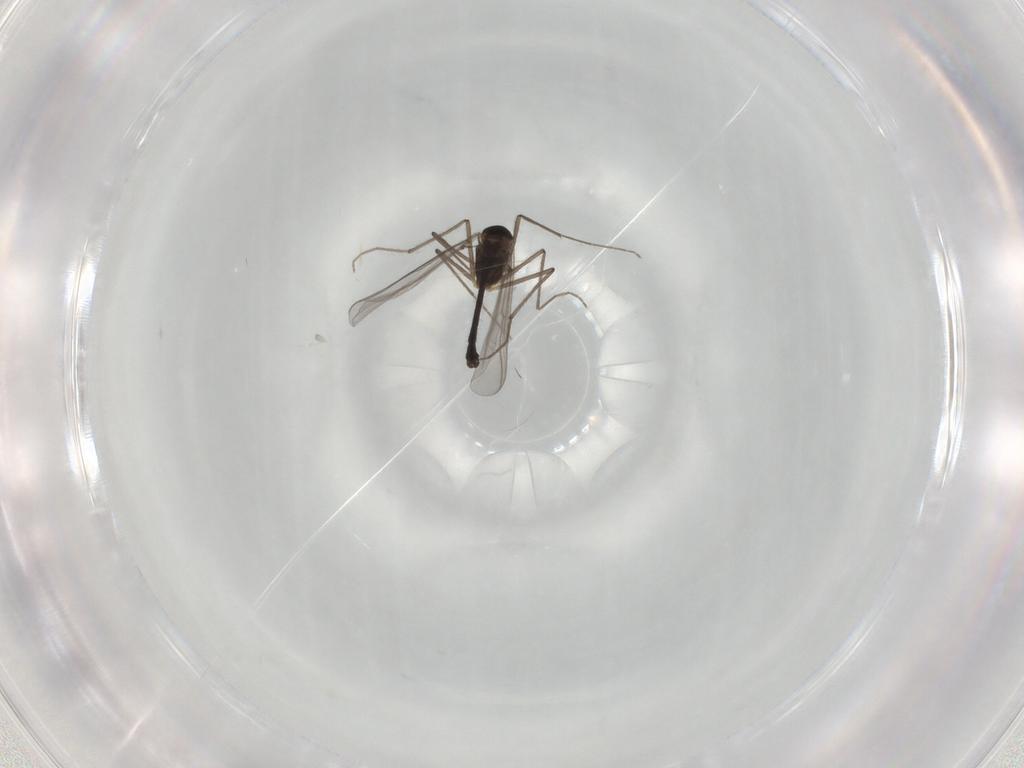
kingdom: Animalia
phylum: Arthropoda
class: Insecta
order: Diptera
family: Chironomidae
